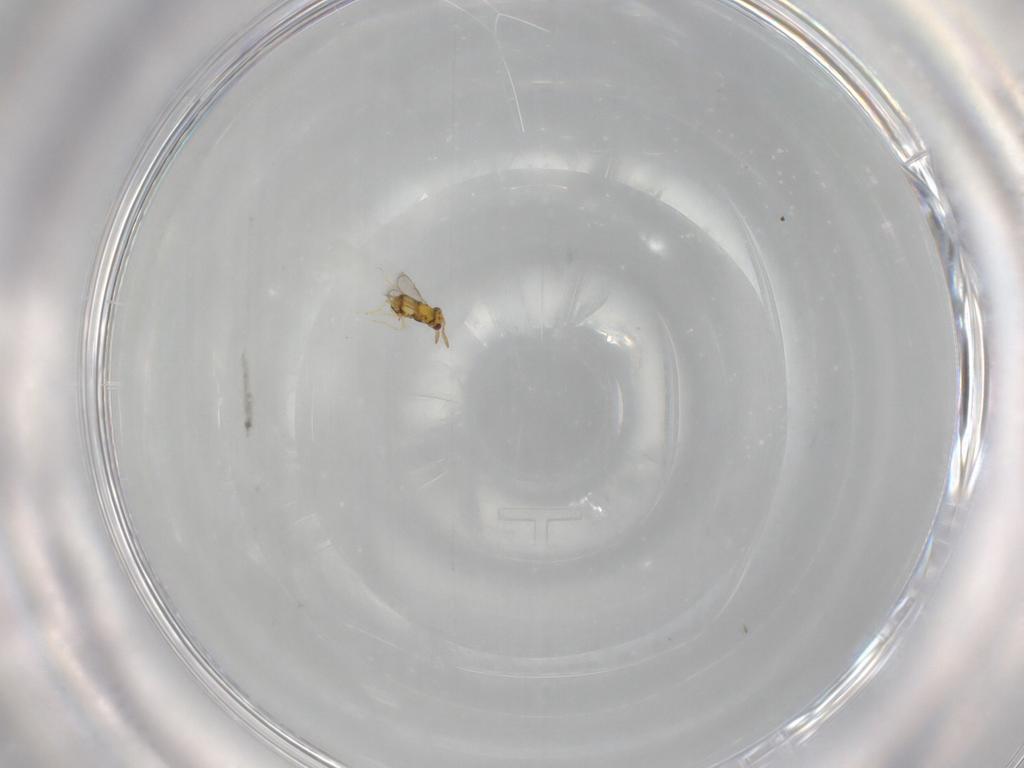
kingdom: Animalia
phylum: Arthropoda
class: Insecta
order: Hymenoptera
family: Aphelinidae
